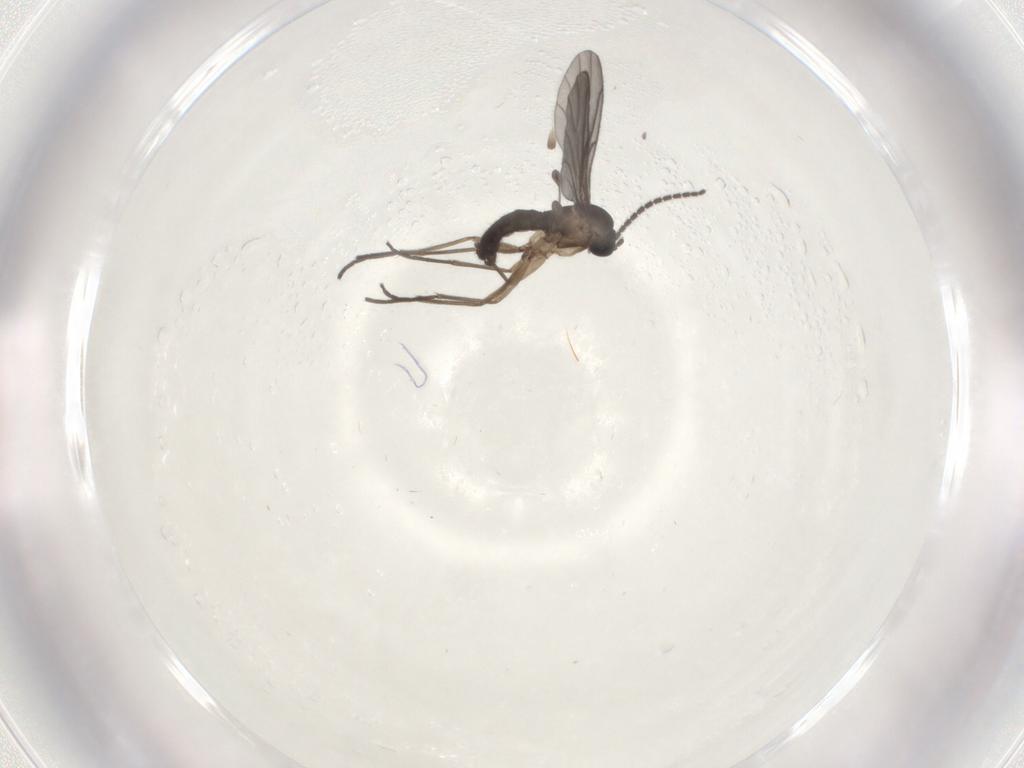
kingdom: Animalia
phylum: Arthropoda
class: Insecta
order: Diptera
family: Sciaridae
